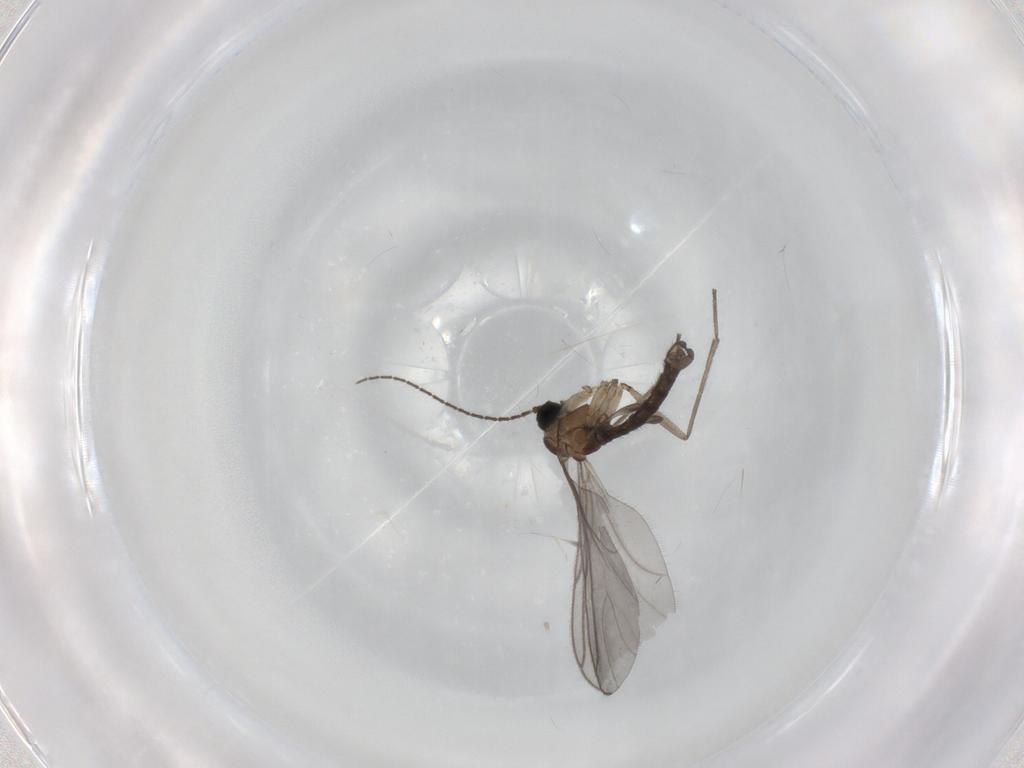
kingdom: Animalia
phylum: Arthropoda
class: Insecta
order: Diptera
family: Sciaridae
